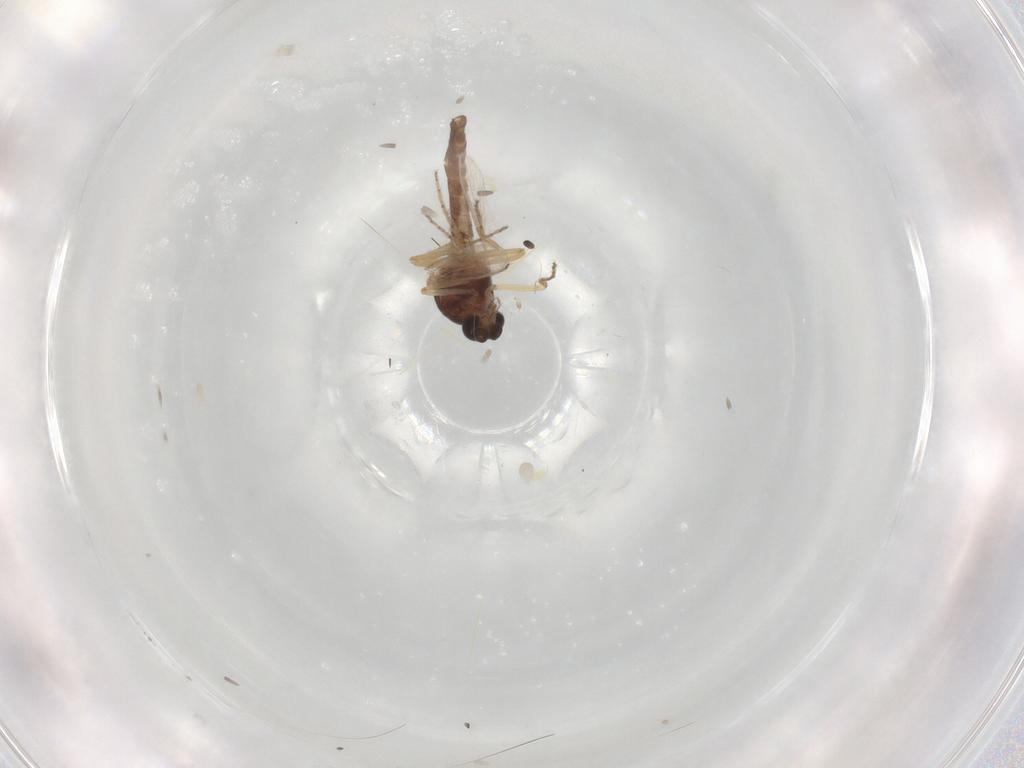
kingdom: Animalia
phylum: Arthropoda
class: Insecta
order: Diptera
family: Ceratopogonidae
